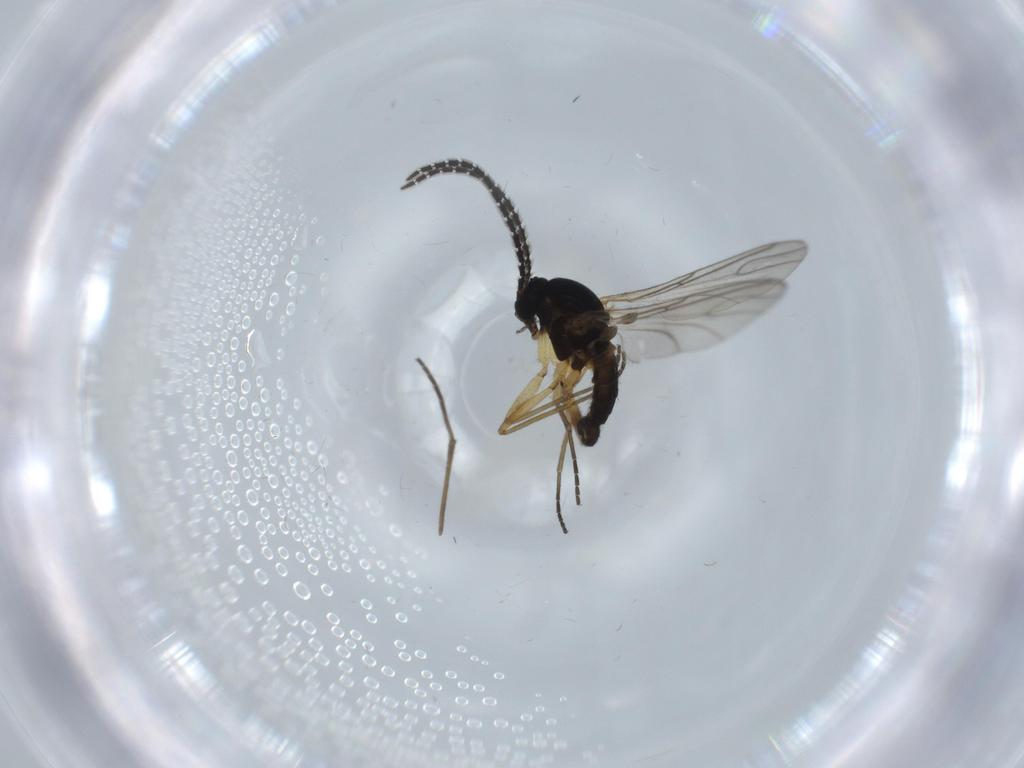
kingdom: Animalia
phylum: Arthropoda
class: Insecta
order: Diptera
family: Sciaridae
